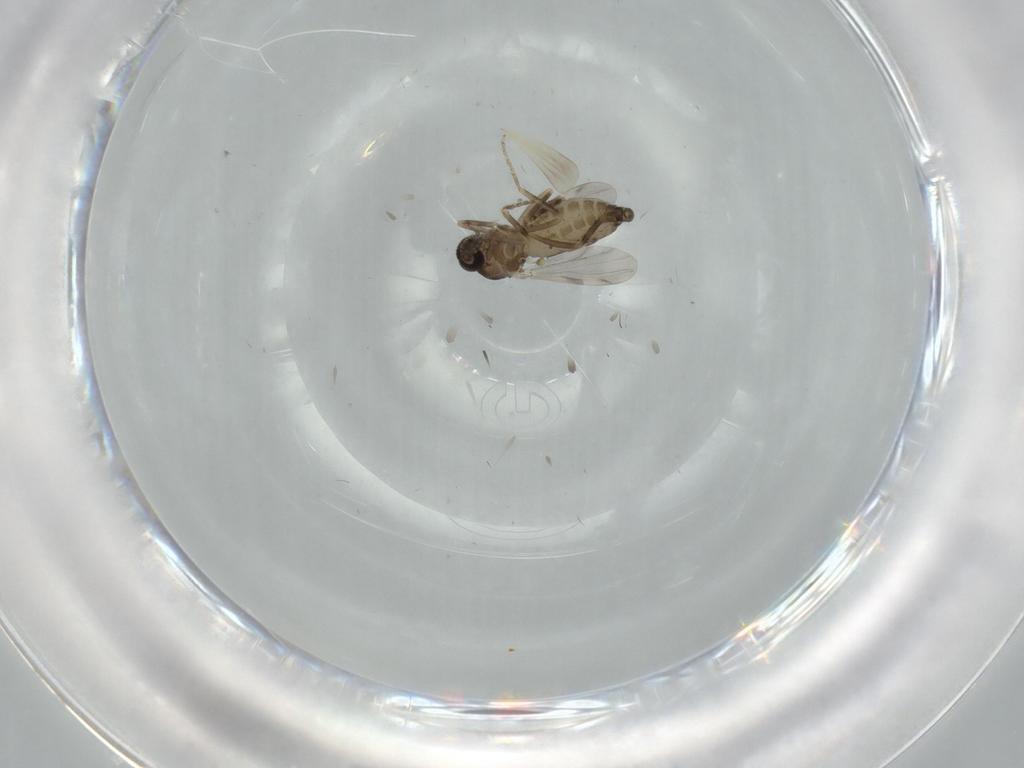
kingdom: Animalia
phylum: Arthropoda
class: Insecta
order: Diptera
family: Ceratopogonidae
